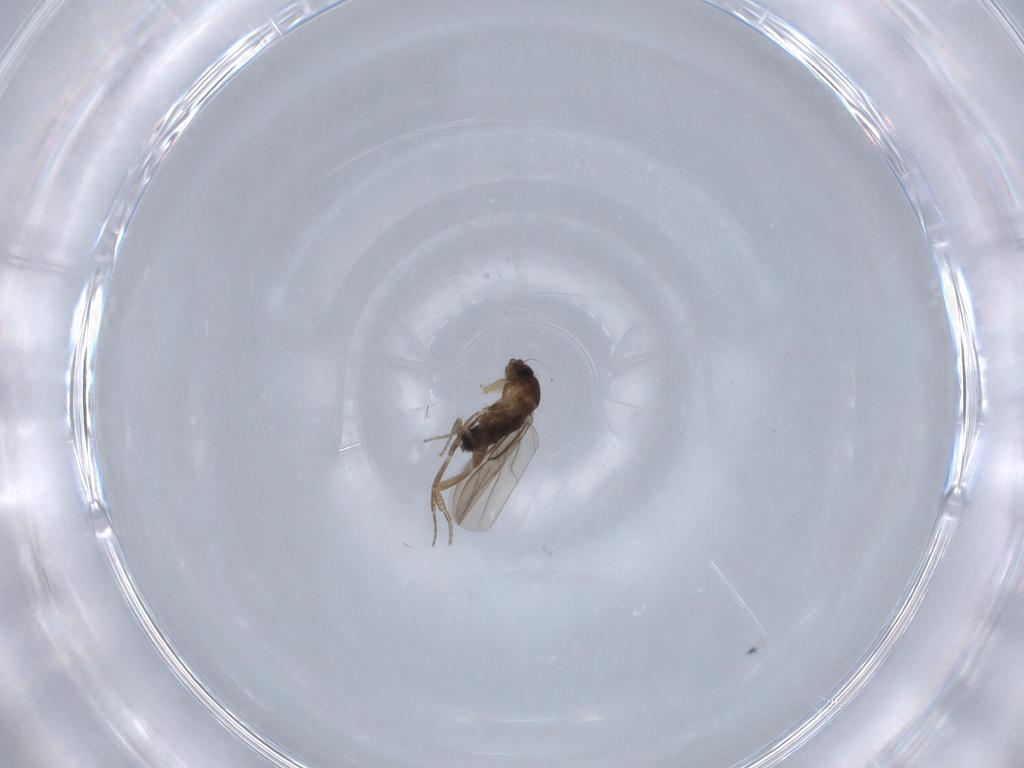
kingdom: Animalia
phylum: Arthropoda
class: Insecta
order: Diptera
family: Phoridae
